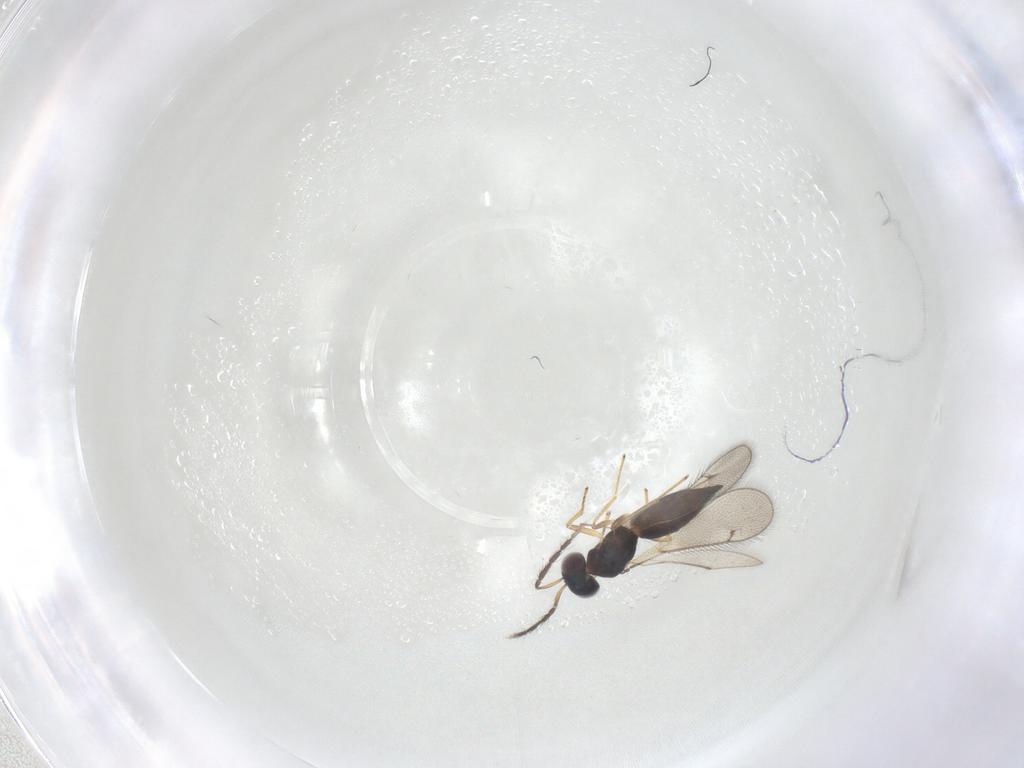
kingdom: Animalia
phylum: Arthropoda
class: Insecta
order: Hymenoptera
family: Eulophidae
